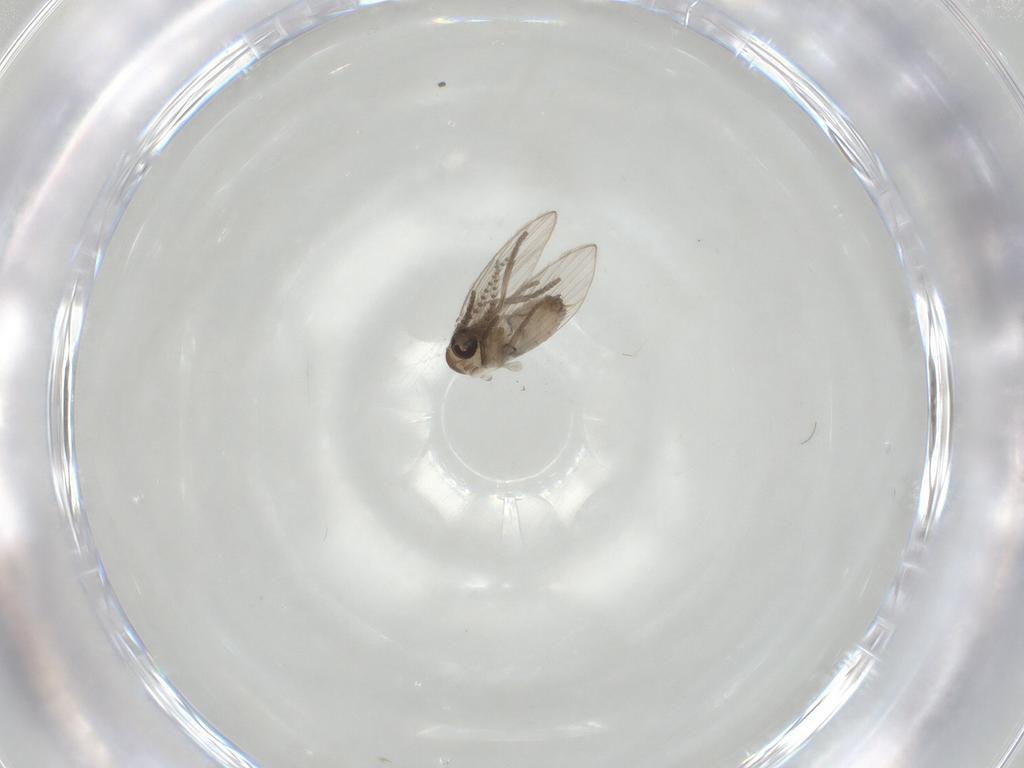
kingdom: Animalia
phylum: Arthropoda
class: Insecta
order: Diptera
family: Psychodidae
